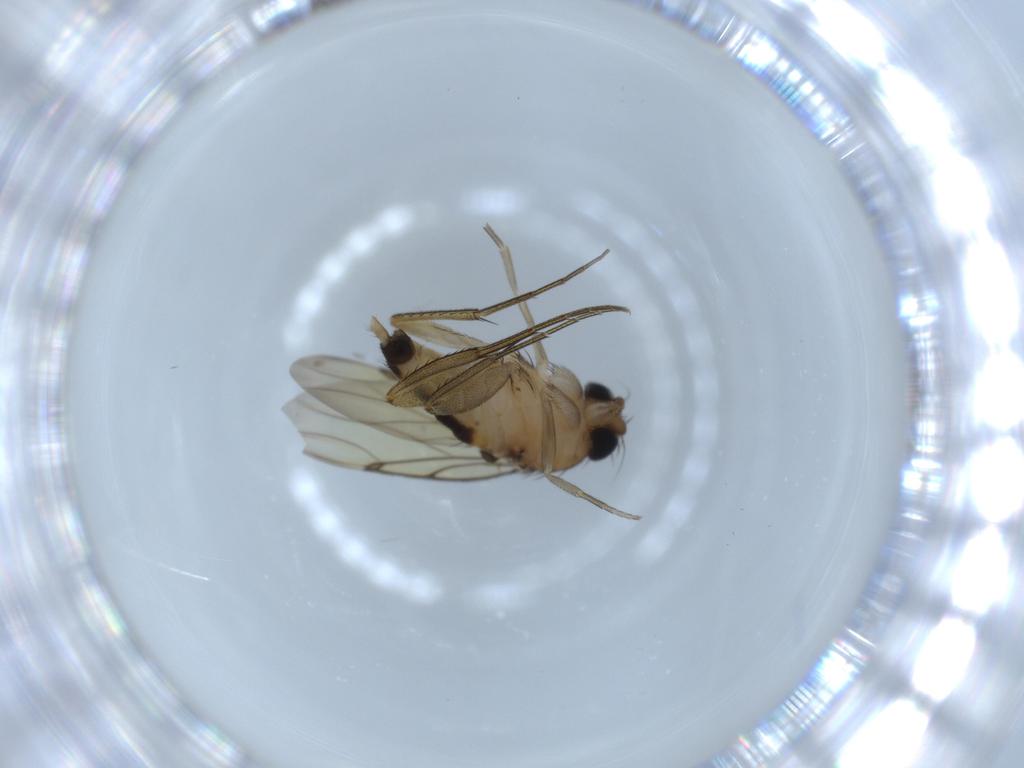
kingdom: Animalia
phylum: Arthropoda
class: Insecta
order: Diptera
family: Phoridae
